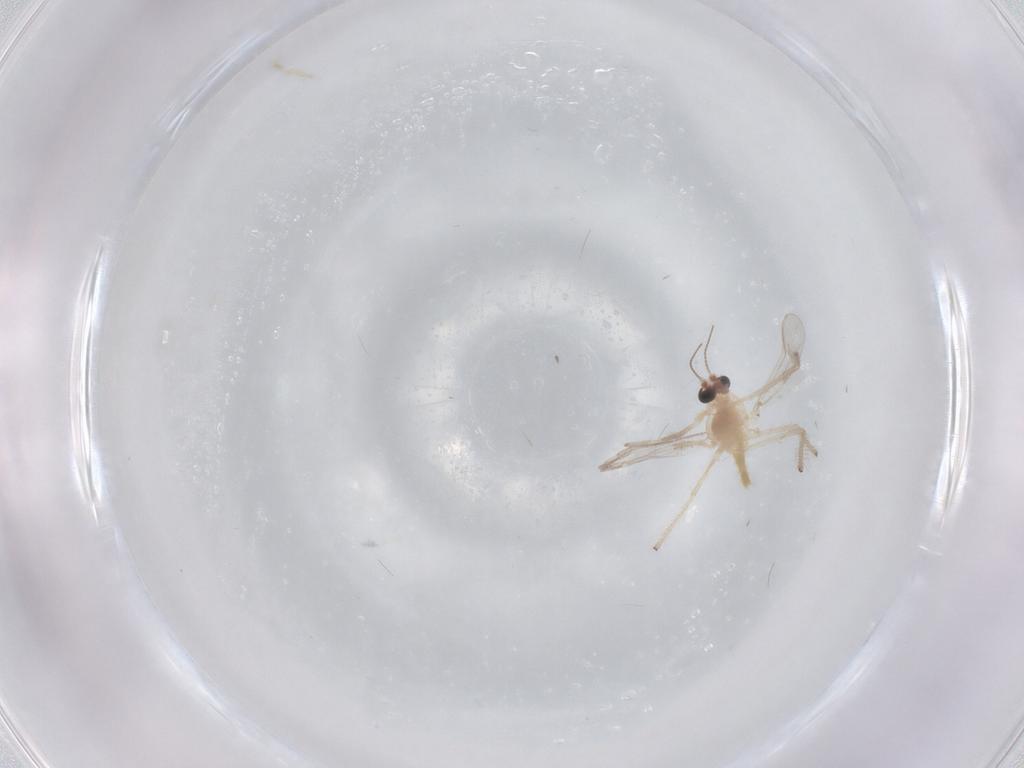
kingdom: Animalia
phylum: Arthropoda
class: Insecta
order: Diptera
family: Chironomidae
